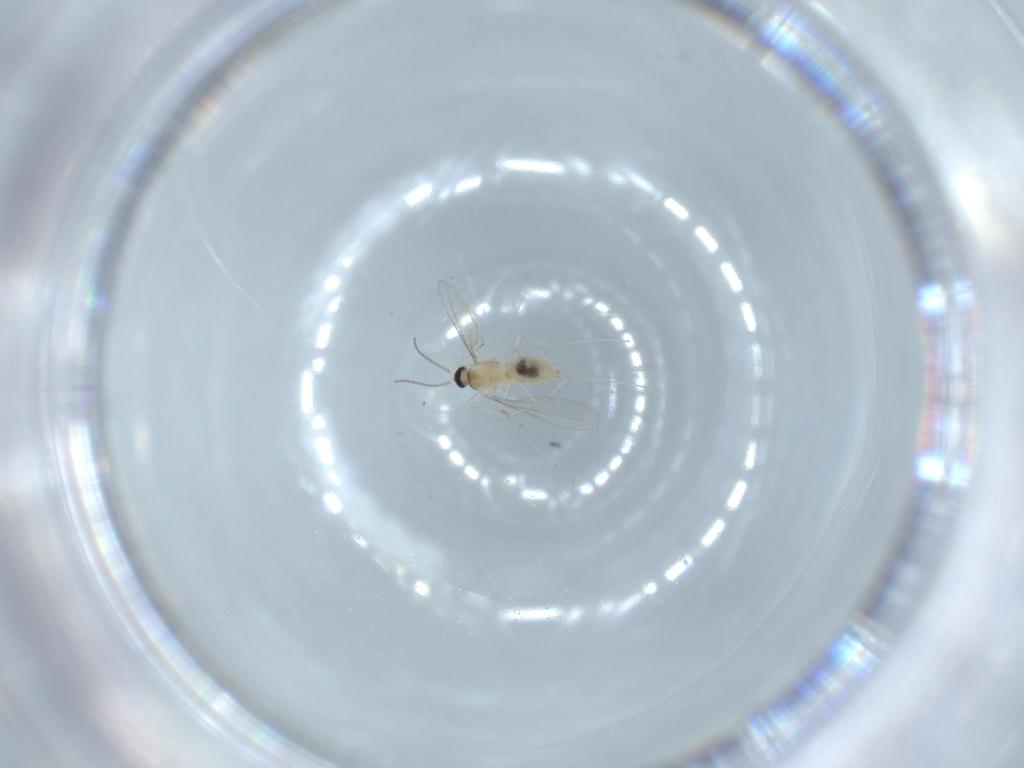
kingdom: Animalia
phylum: Arthropoda
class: Insecta
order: Diptera
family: Cecidomyiidae
